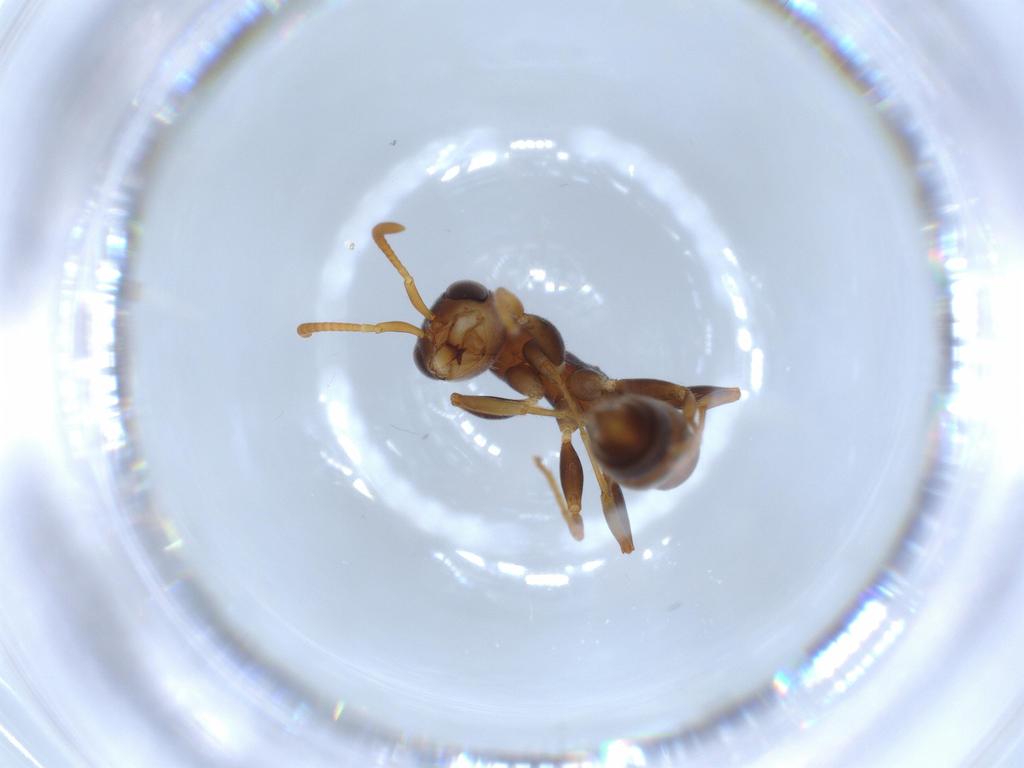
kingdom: Animalia
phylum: Arthropoda
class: Insecta
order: Hymenoptera
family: Formicidae
